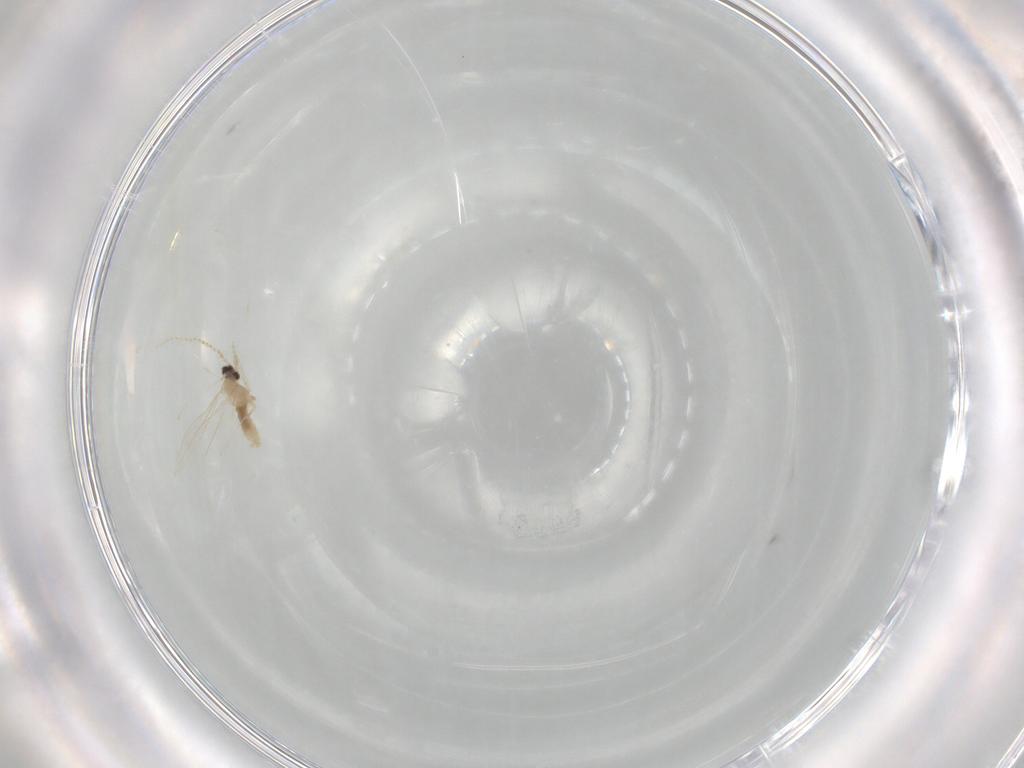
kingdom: Animalia
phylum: Arthropoda
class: Insecta
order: Diptera
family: Cecidomyiidae
